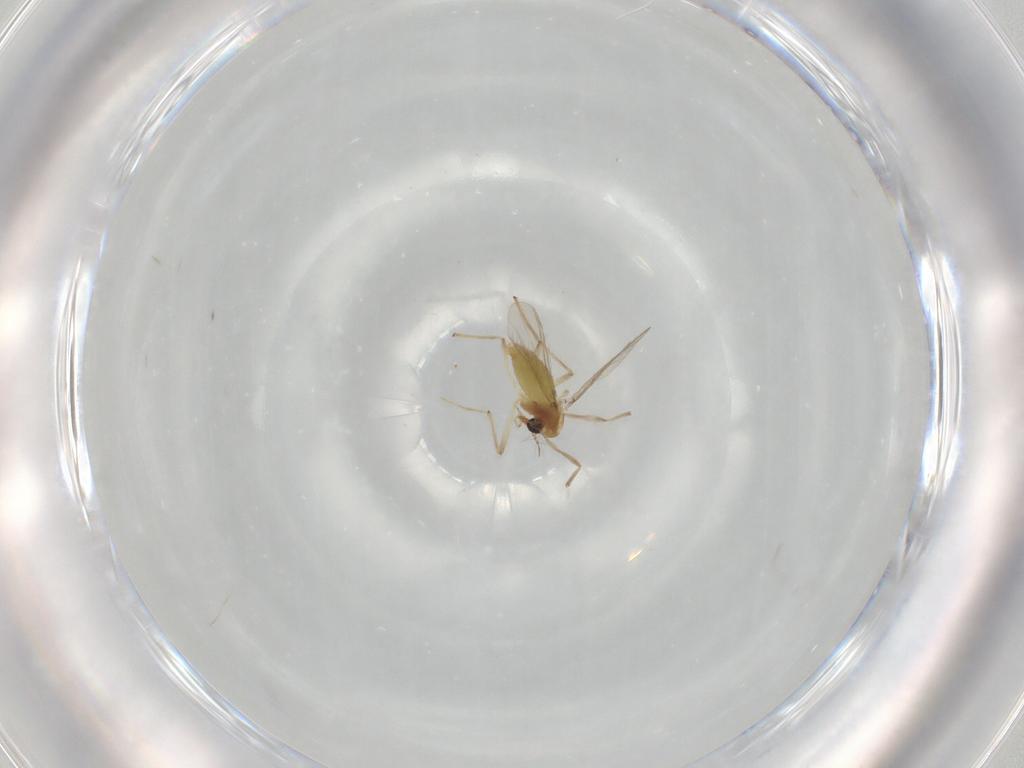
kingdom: Animalia
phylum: Arthropoda
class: Insecta
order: Diptera
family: Chironomidae
